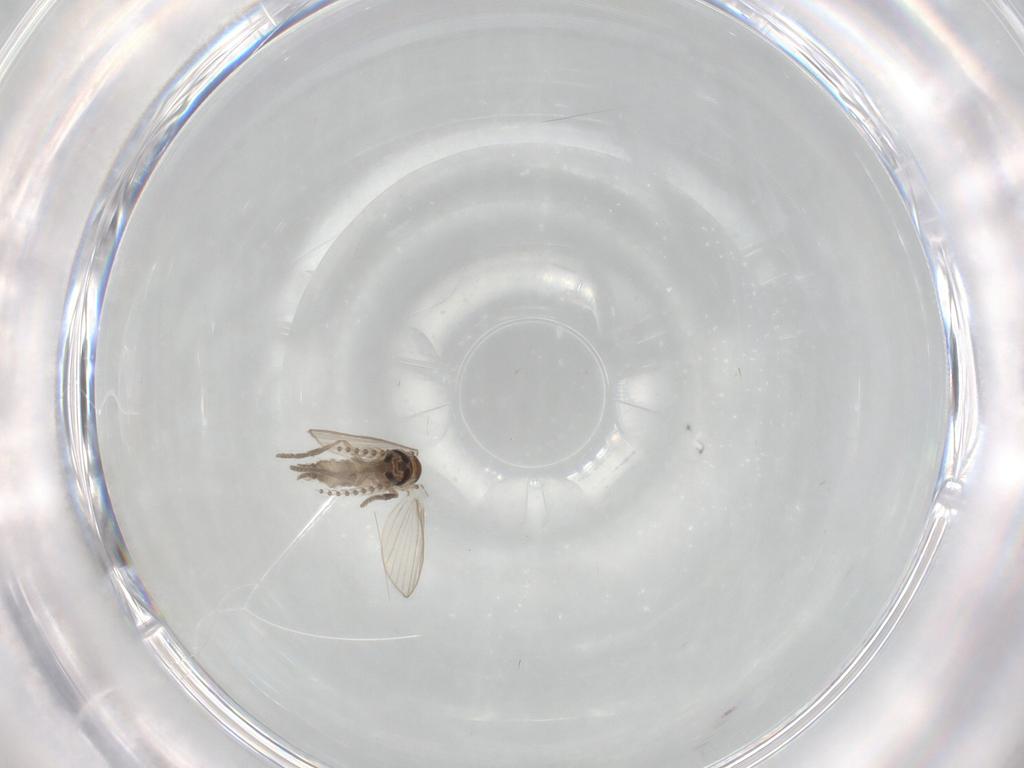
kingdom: Animalia
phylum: Arthropoda
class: Insecta
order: Diptera
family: Psychodidae
